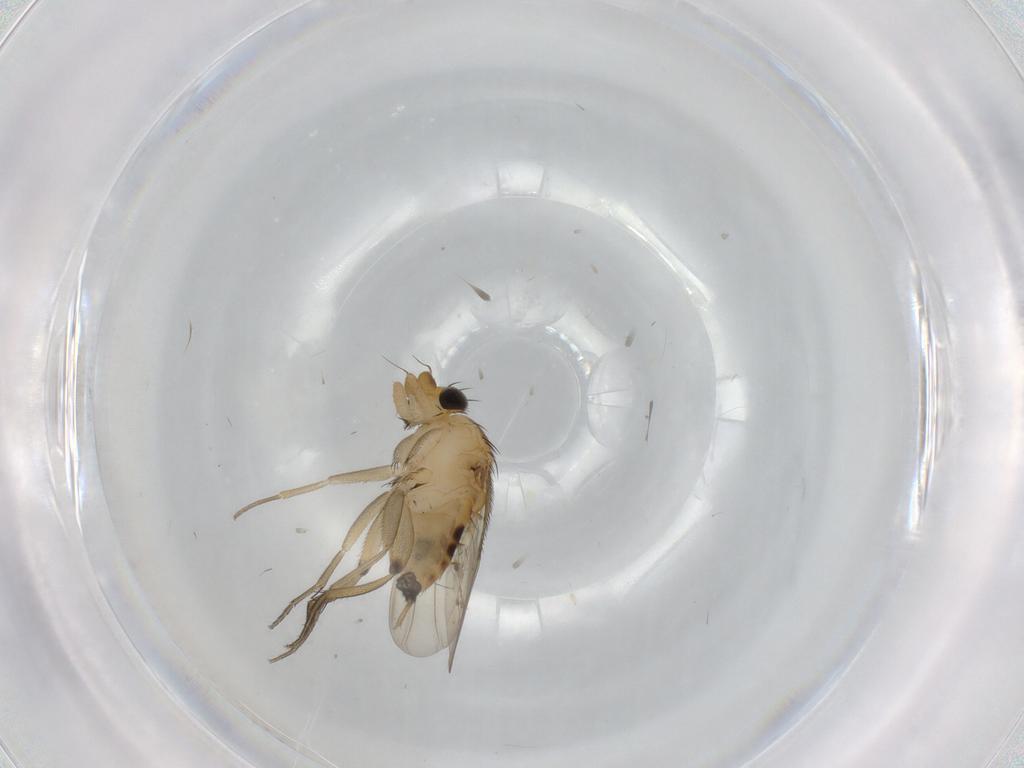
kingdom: Animalia
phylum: Arthropoda
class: Insecta
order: Diptera
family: Phoridae
